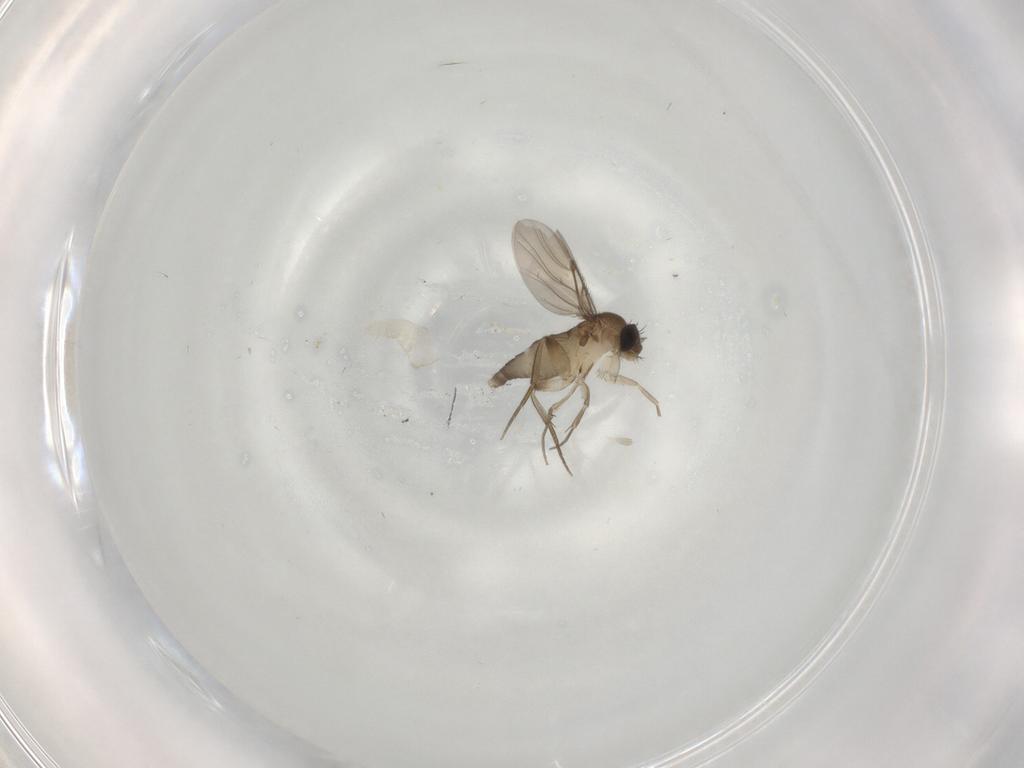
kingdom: Animalia
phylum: Arthropoda
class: Insecta
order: Diptera
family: Phoridae
